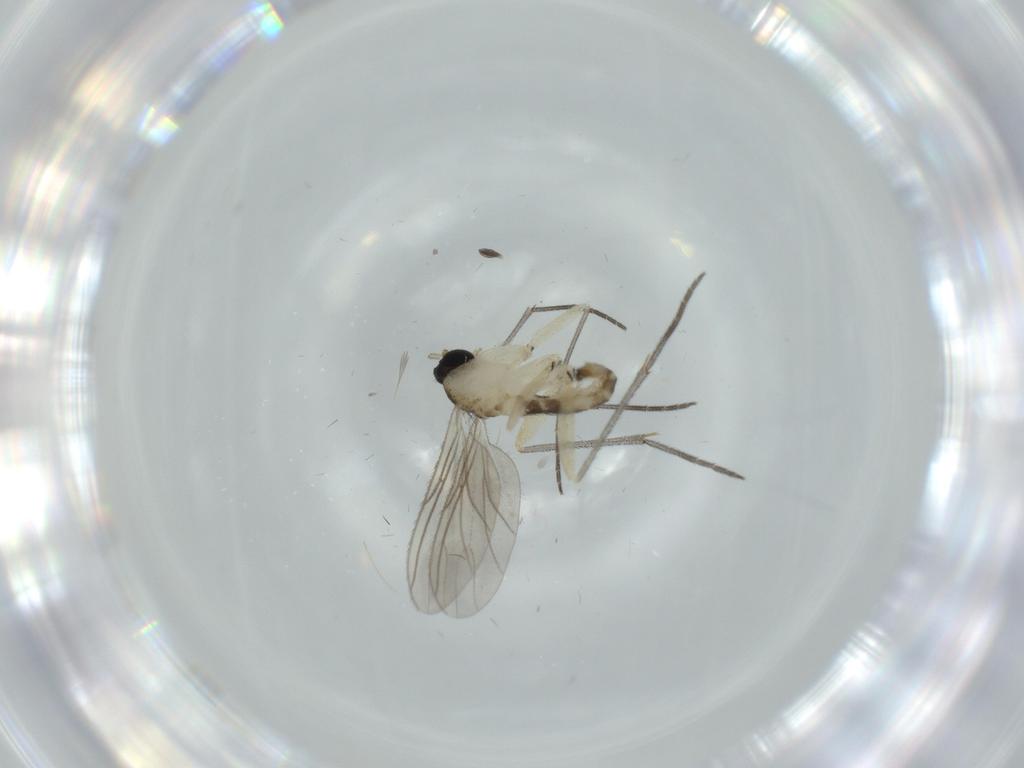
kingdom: Animalia
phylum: Arthropoda
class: Insecta
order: Diptera
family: Sciaridae
